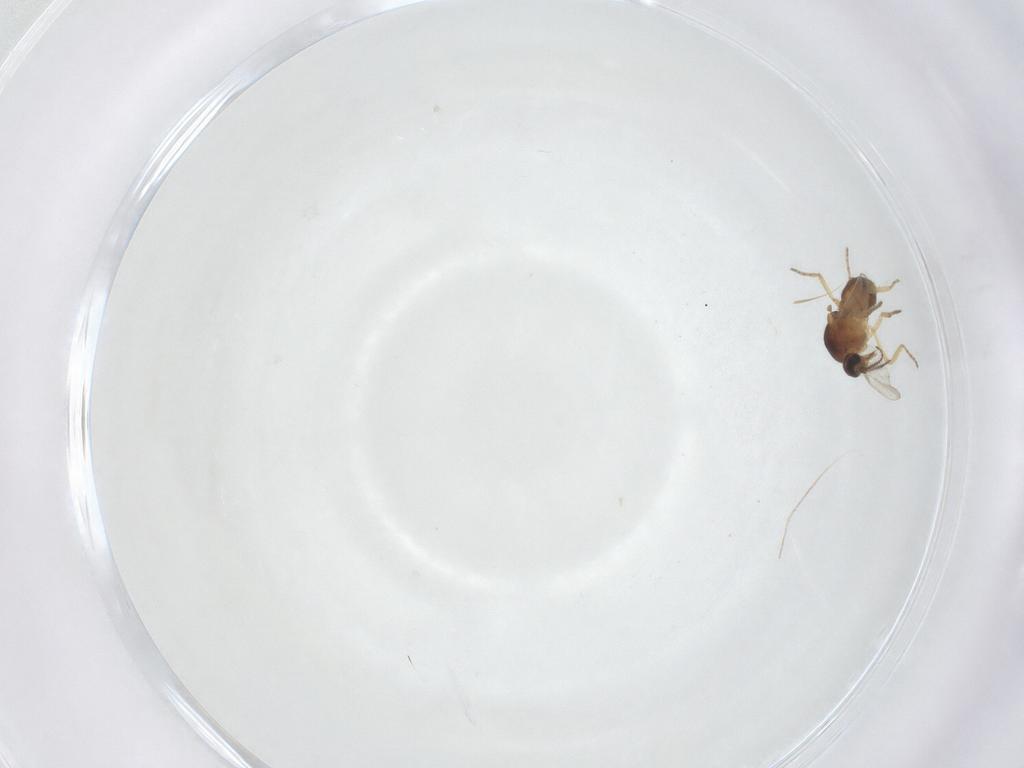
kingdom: Animalia
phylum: Arthropoda
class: Insecta
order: Diptera
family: Ceratopogonidae
